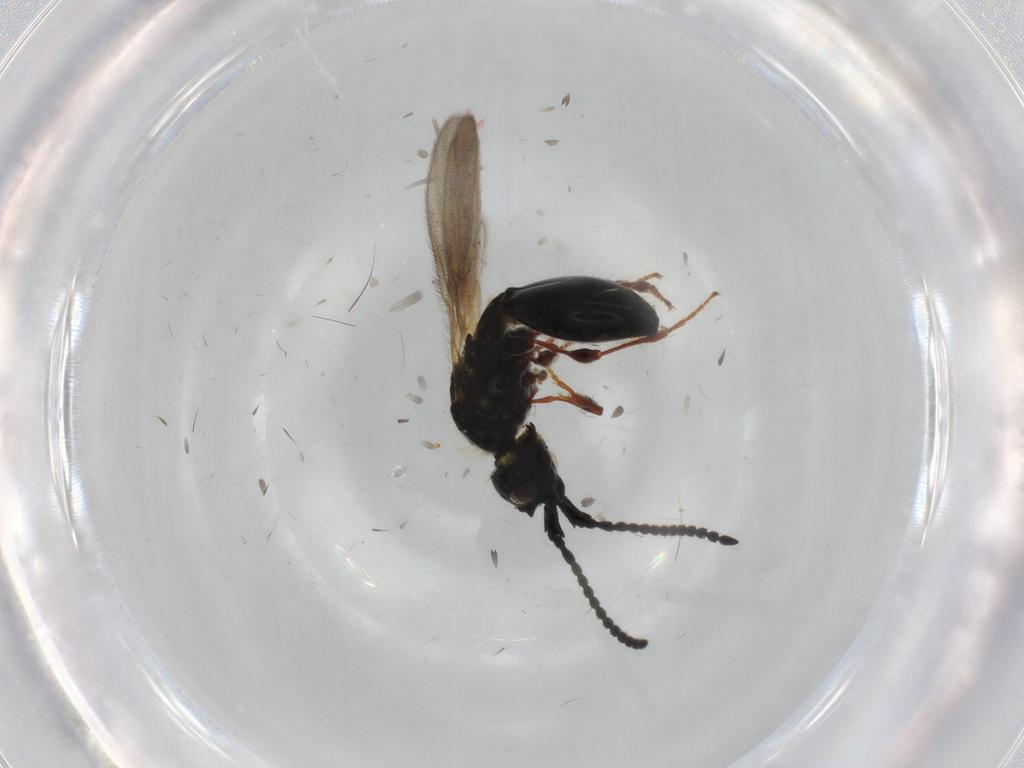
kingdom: Animalia
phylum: Arthropoda
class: Insecta
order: Hymenoptera
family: Diapriidae
